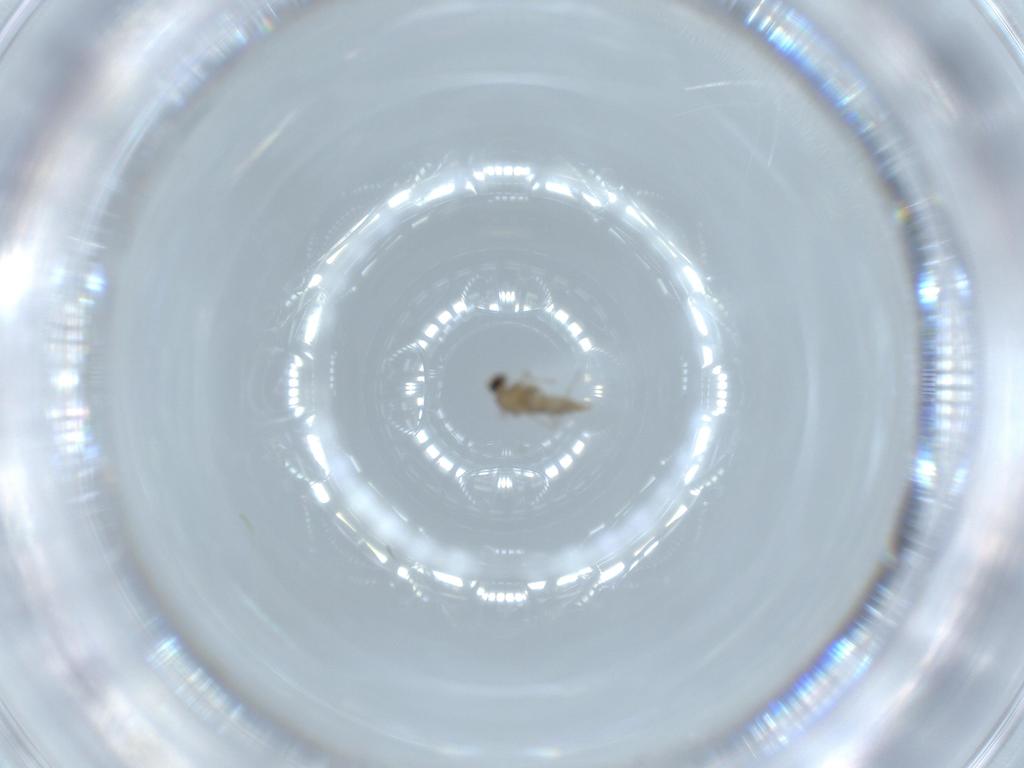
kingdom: Animalia
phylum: Arthropoda
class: Insecta
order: Diptera
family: Cecidomyiidae
